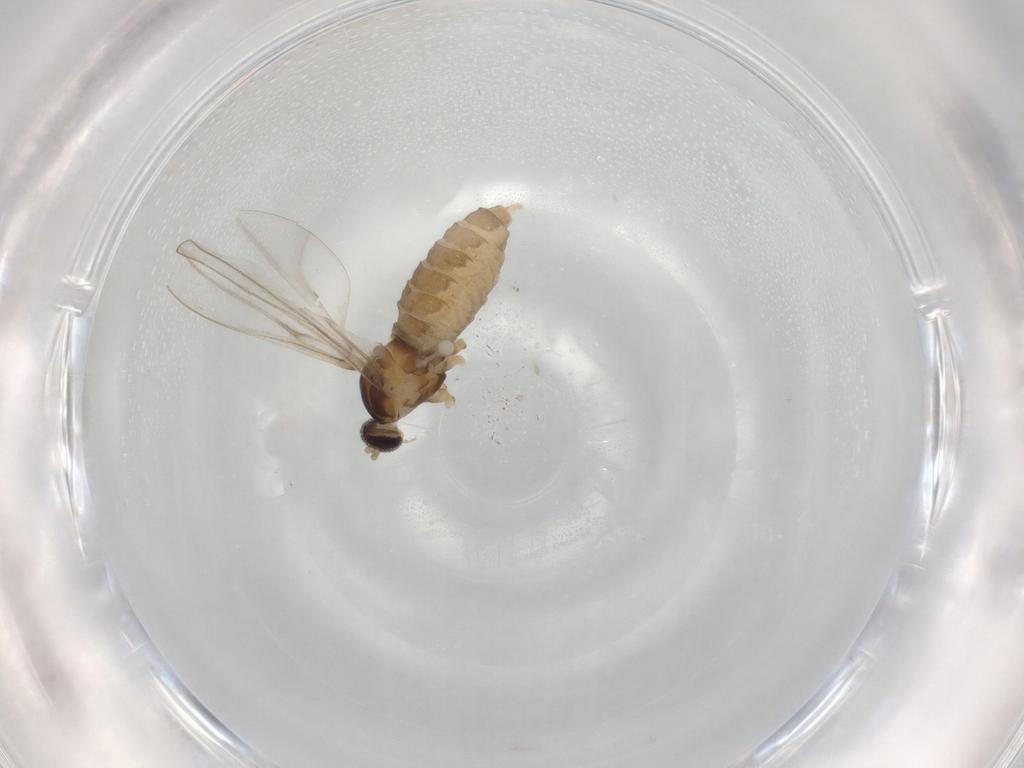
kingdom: Animalia
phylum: Arthropoda
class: Insecta
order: Diptera
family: Cecidomyiidae
